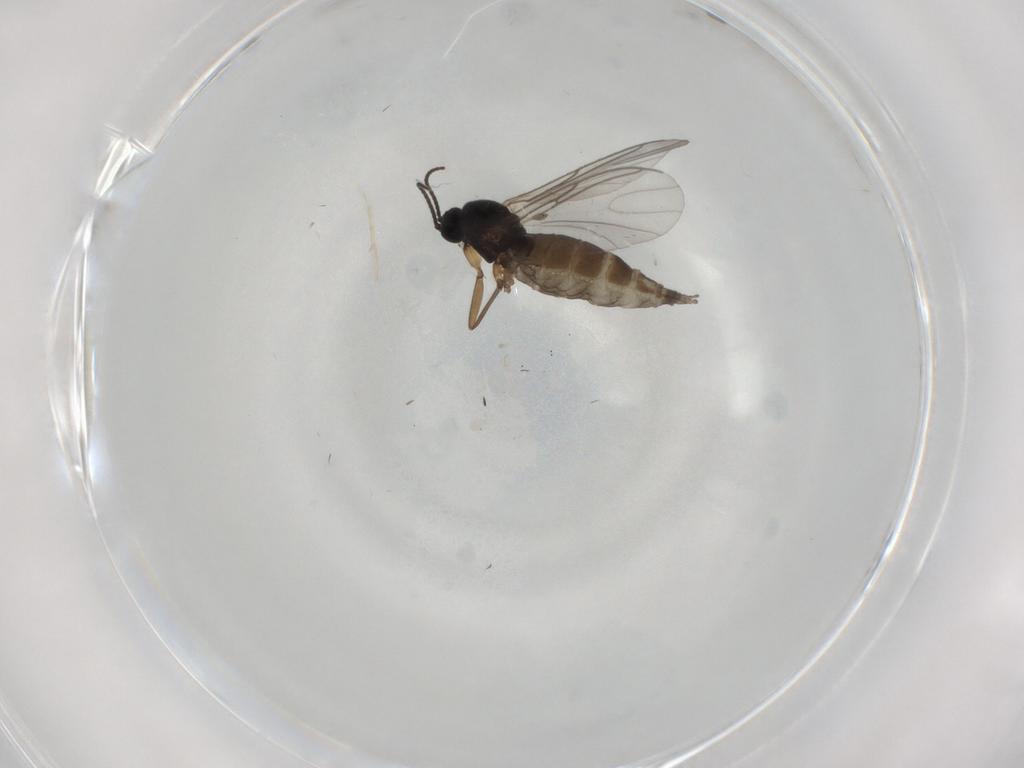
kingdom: Animalia
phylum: Arthropoda
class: Insecta
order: Diptera
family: Sciaridae
